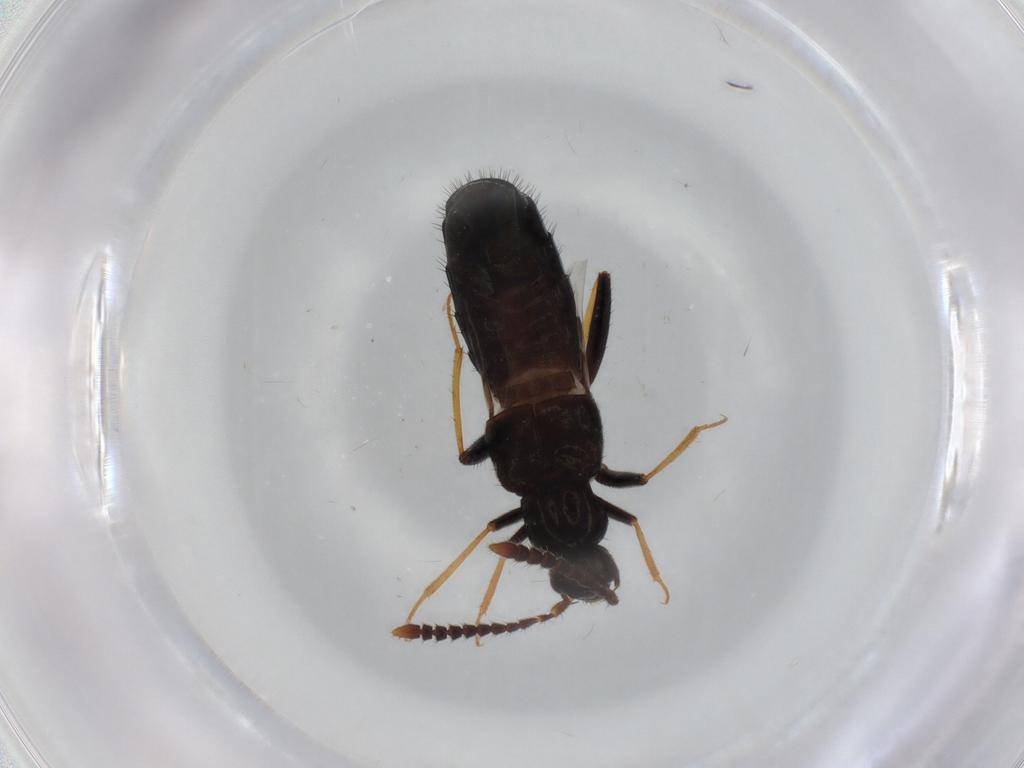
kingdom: Animalia
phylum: Arthropoda
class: Insecta
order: Coleoptera
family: Staphylinidae
